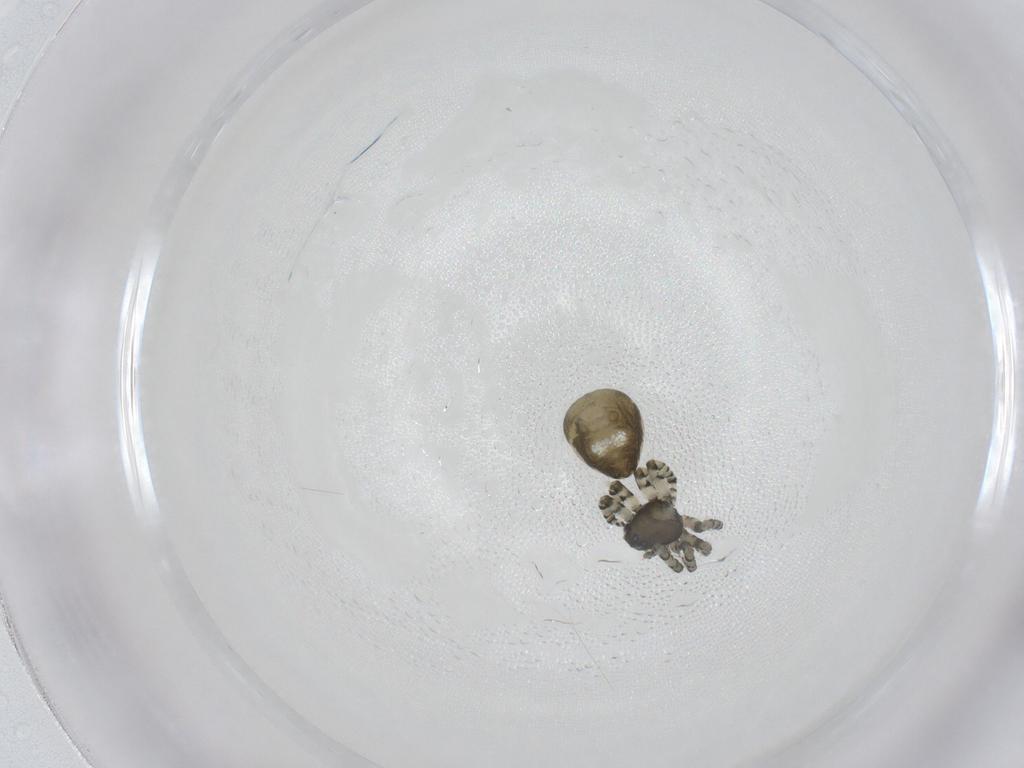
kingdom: Animalia
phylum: Arthropoda
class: Arachnida
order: Araneae
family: Theridiidae
